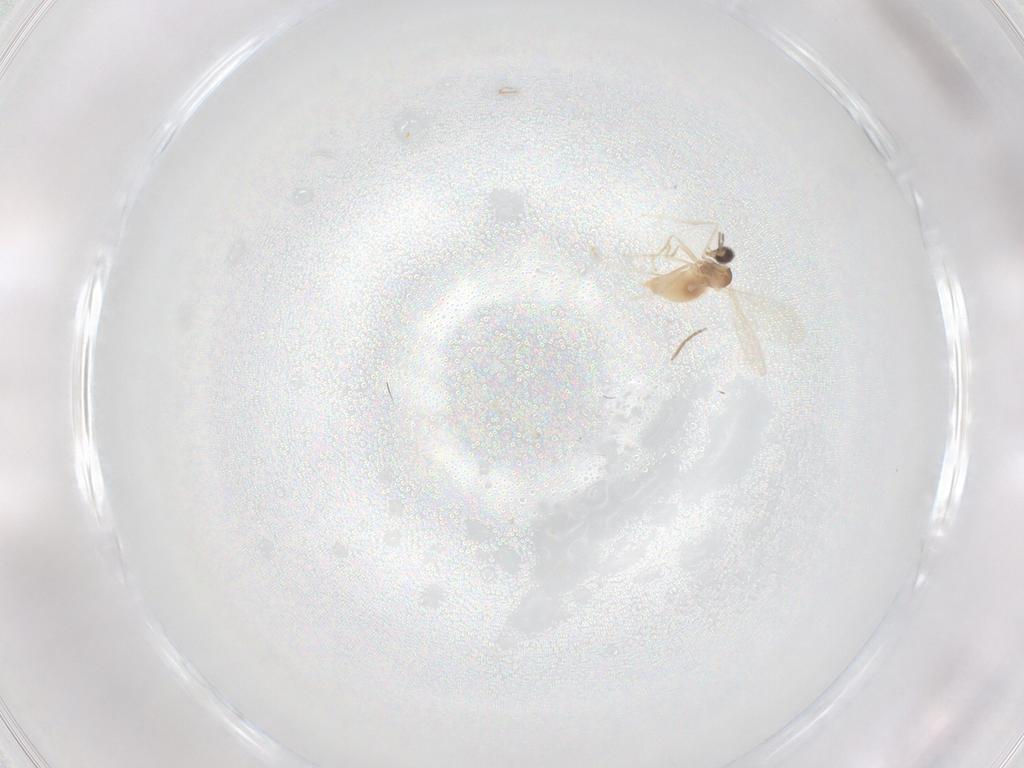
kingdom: Animalia
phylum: Arthropoda
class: Insecta
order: Diptera
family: Cecidomyiidae
